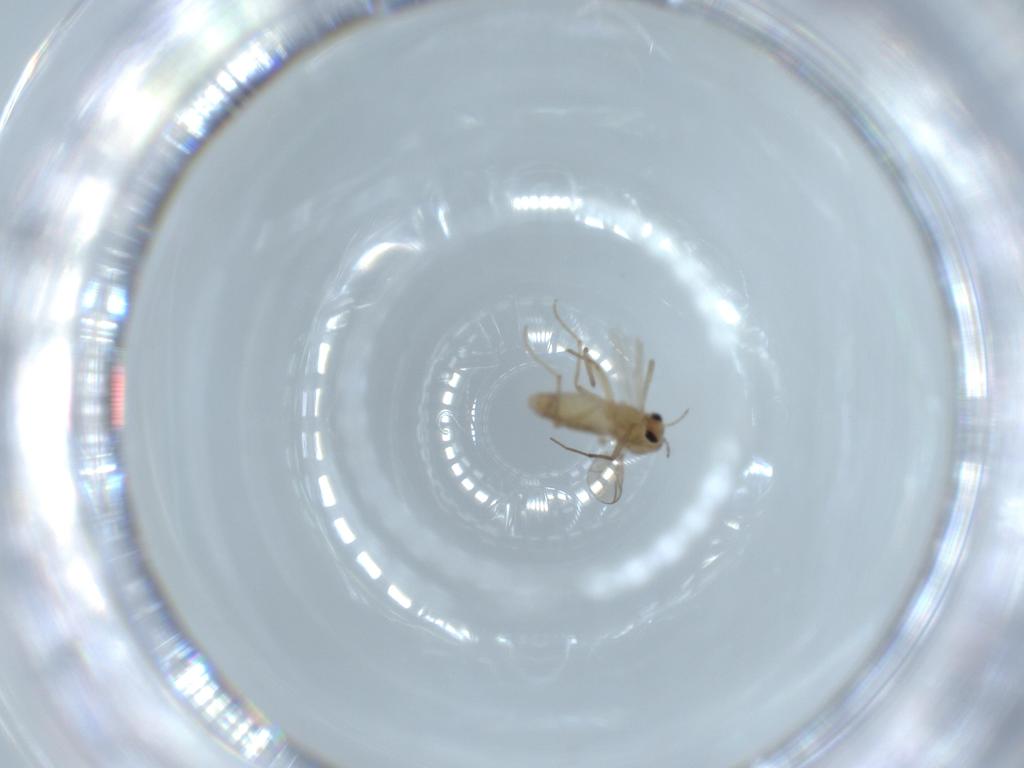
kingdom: Animalia
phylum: Arthropoda
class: Insecta
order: Diptera
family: Chironomidae
